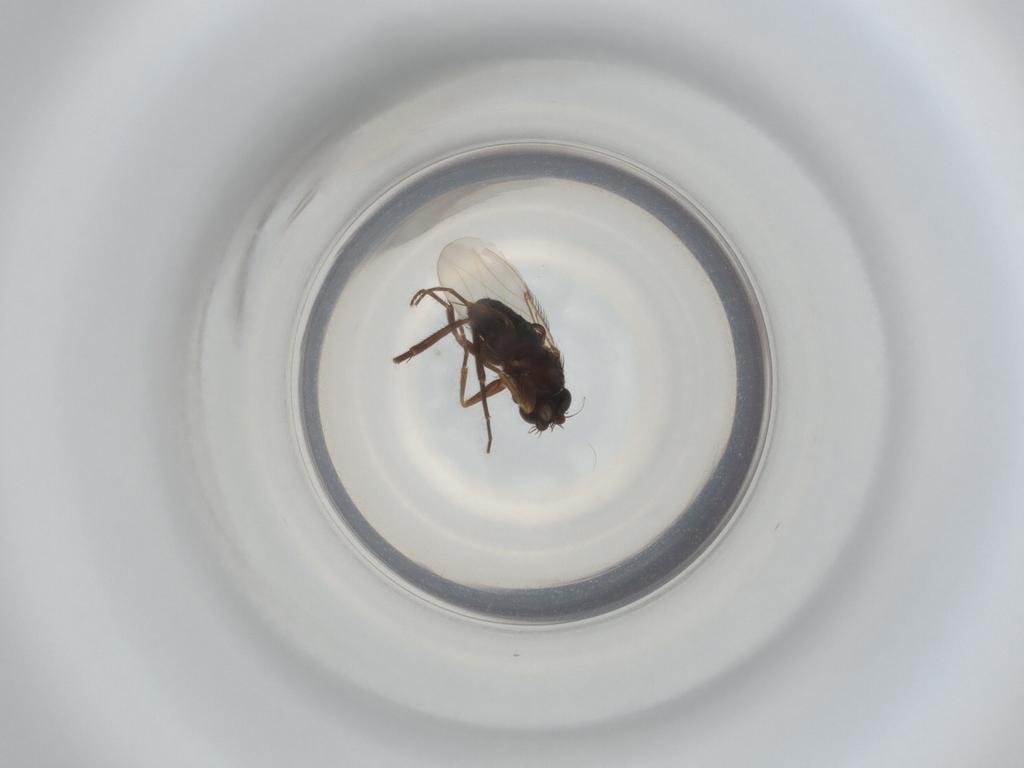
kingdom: Animalia
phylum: Arthropoda
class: Insecta
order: Diptera
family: Phoridae
